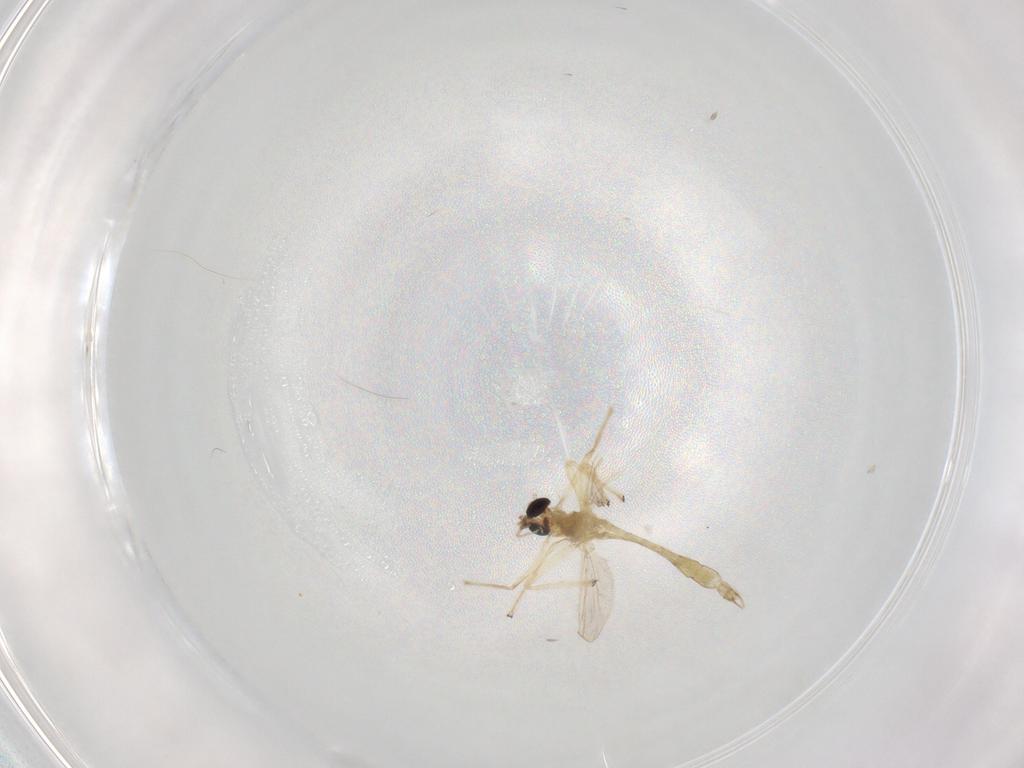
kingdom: Animalia
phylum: Arthropoda
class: Insecta
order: Diptera
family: Chironomidae
